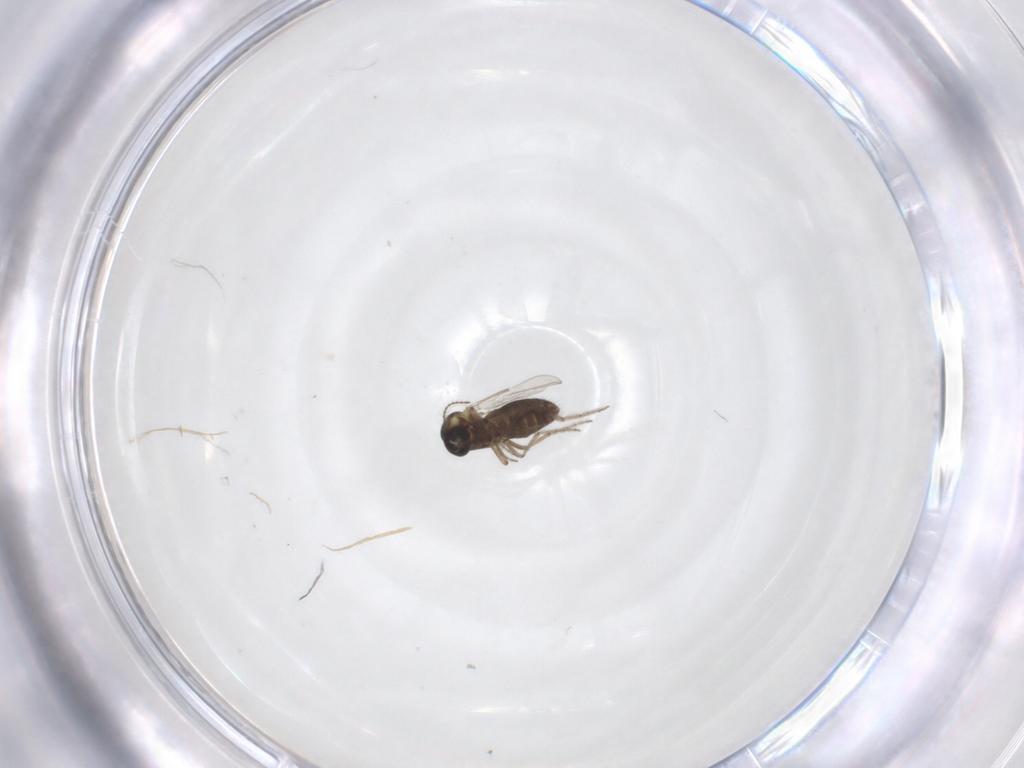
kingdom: Animalia
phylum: Arthropoda
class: Insecta
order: Diptera
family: Ceratopogonidae
